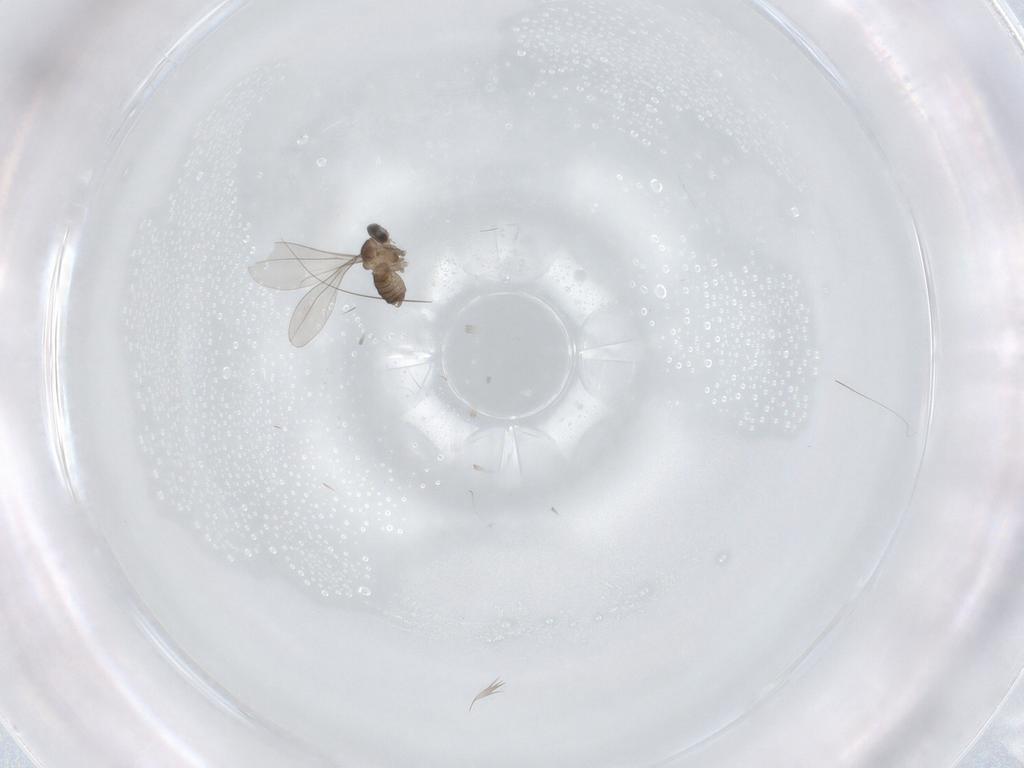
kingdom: Animalia
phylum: Arthropoda
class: Insecta
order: Diptera
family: Cecidomyiidae
